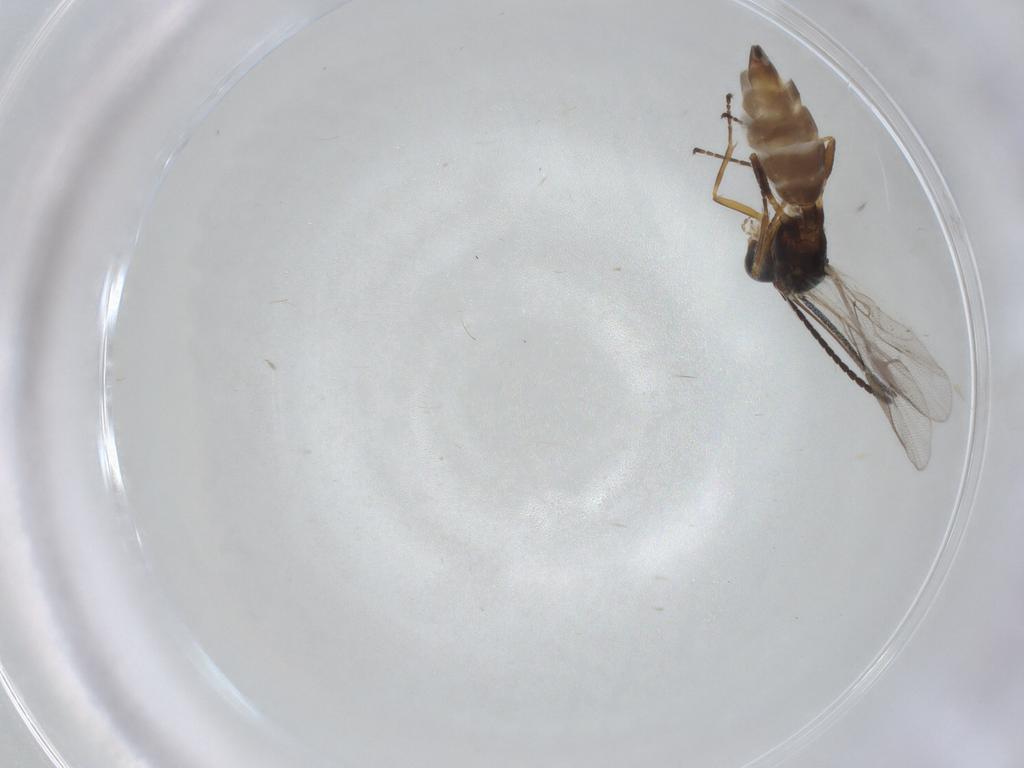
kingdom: Animalia
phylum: Arthropoda
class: Insecta
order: Hymenoptera
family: Braconidae
